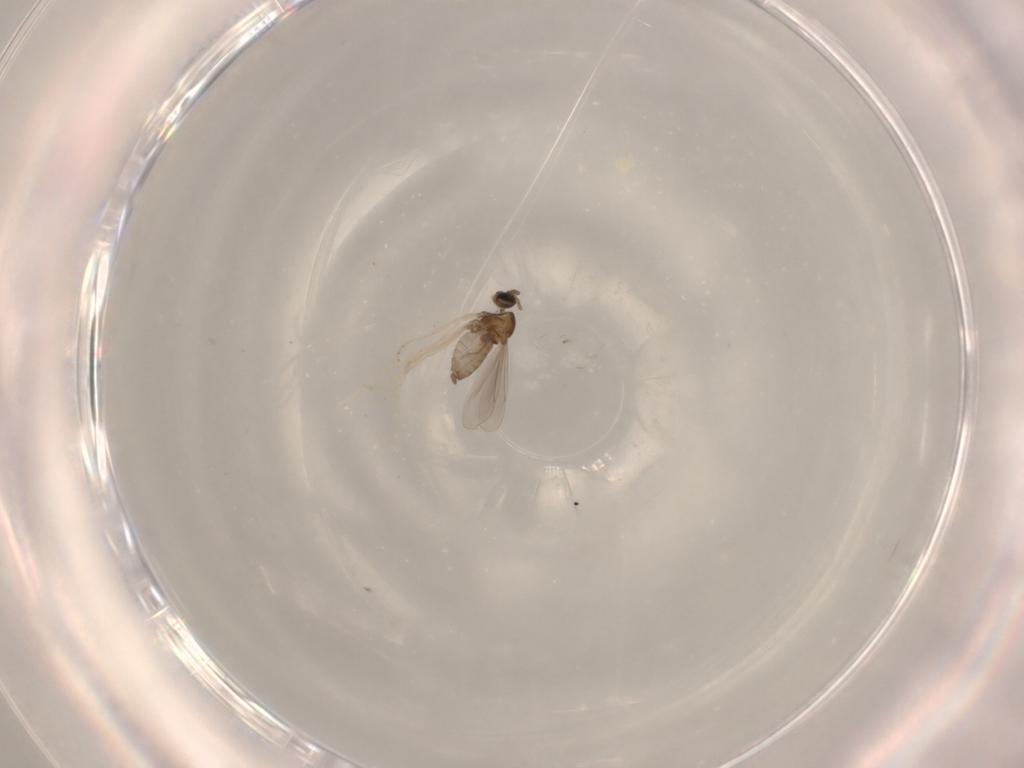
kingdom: Animalia
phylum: Arthropoda
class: Insecta
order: Diptera
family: Cecidomyiidae
